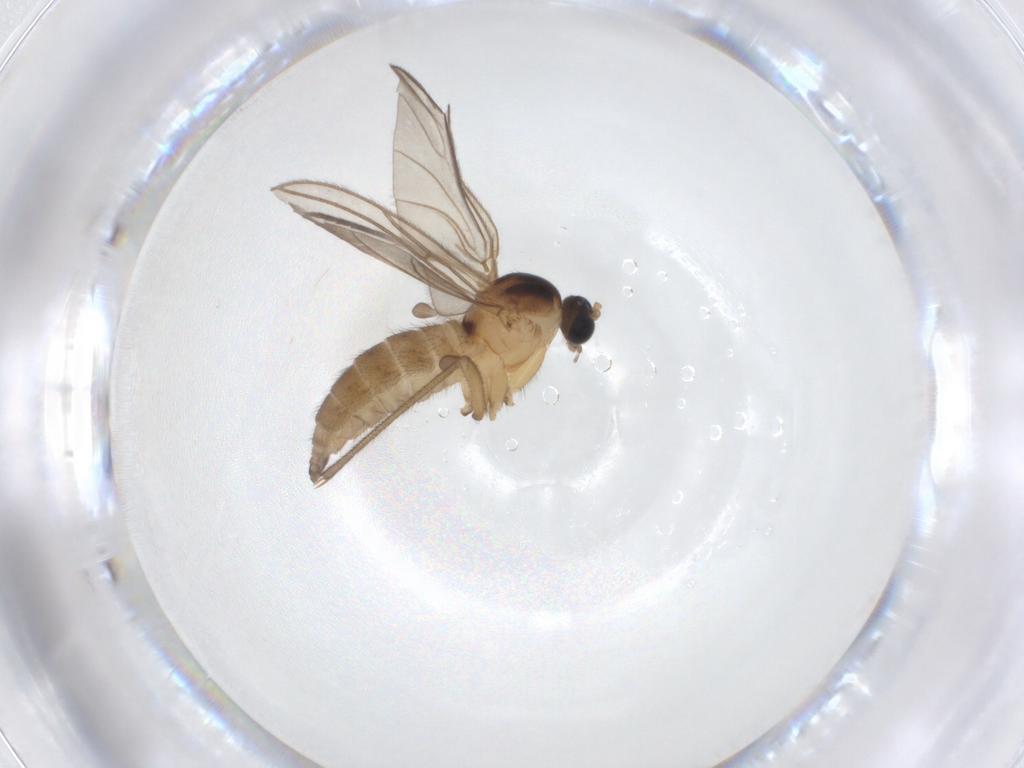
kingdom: Animalia
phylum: Arthropoda
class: Insecta
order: Diptera
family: Sciaridae
